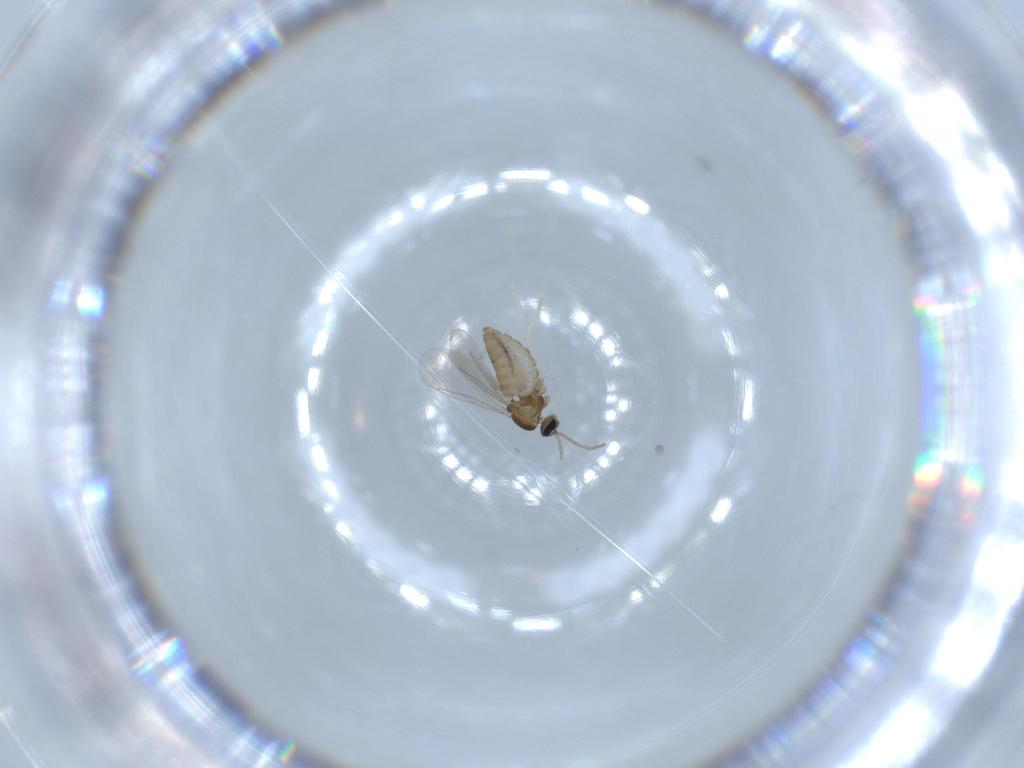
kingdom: Animalia
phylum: Arthropoda
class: Insecta
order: Diptera
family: Cecidomyiidae
